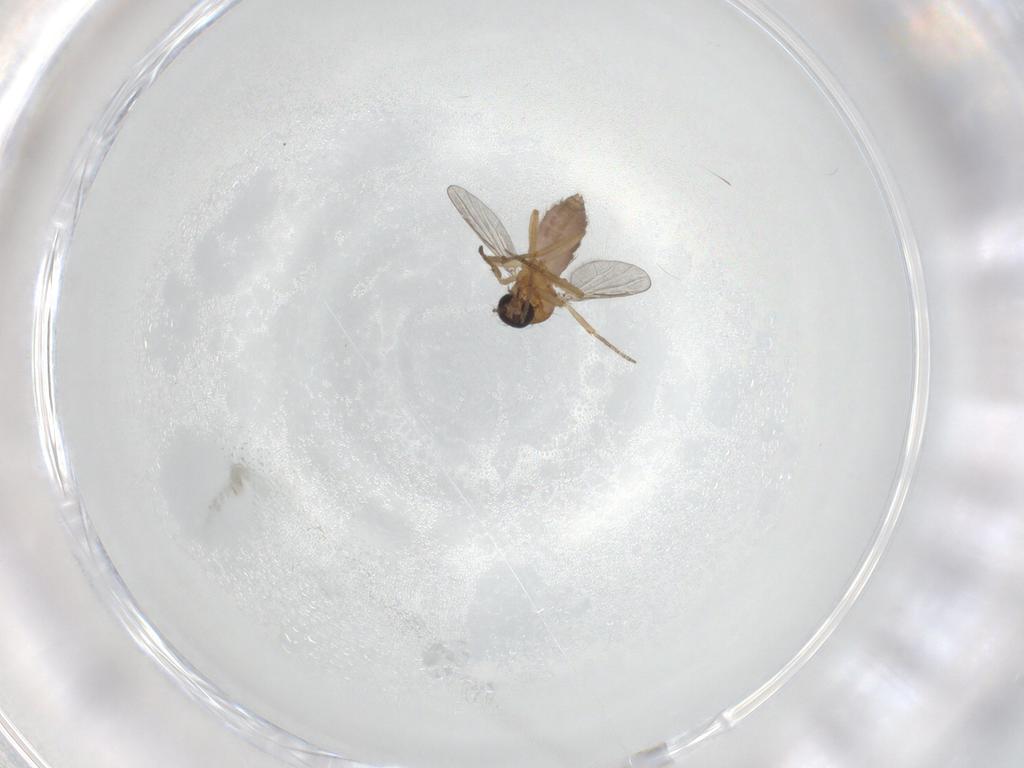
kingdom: Animalia
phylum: Arthropoda
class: Insecta
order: Diptera
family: Ceratopogonidae
